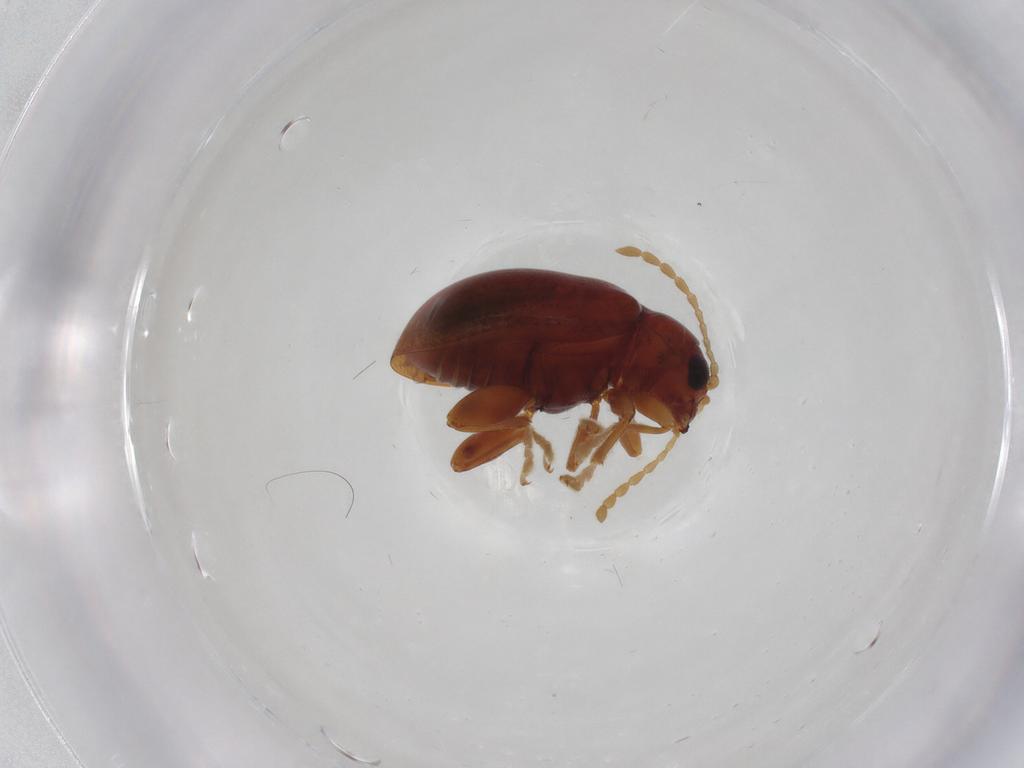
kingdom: Animalia
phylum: Arthropoda
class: Insecta
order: Coleoptera
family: Chrysomelidae
